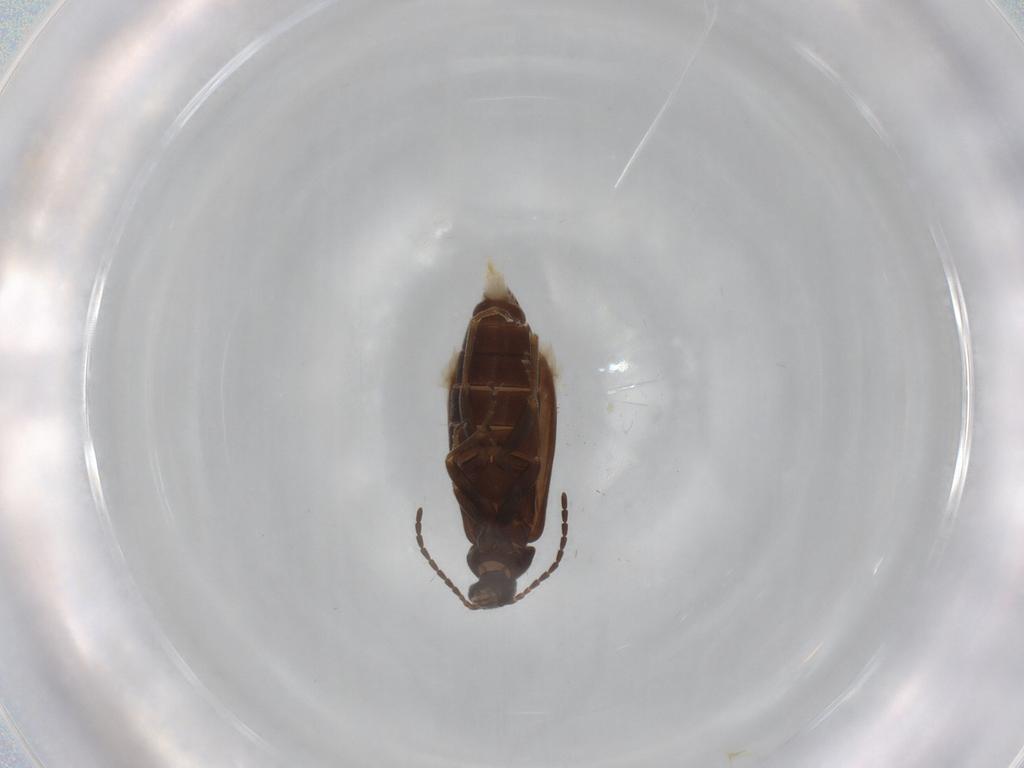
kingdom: Animalia
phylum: Arthropoda
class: Insecta
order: Coleoptera
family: Scraptiidae
